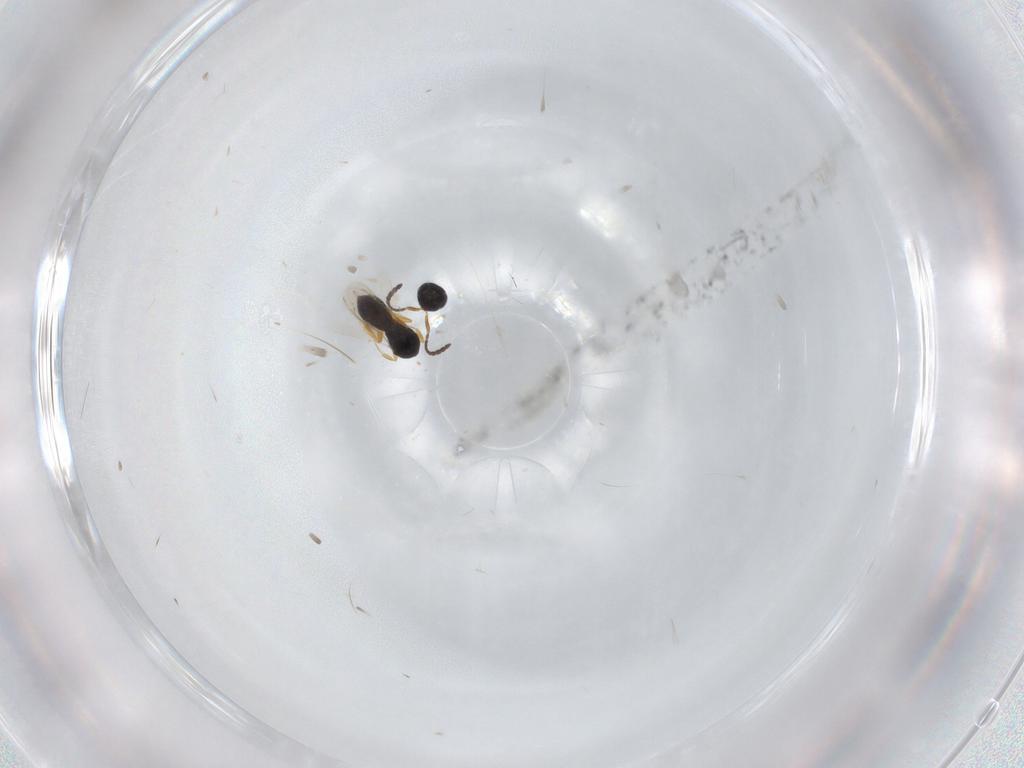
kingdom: Animalia
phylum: Arthropoda
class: Insecta
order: Hymenoptera
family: Scelionidae
